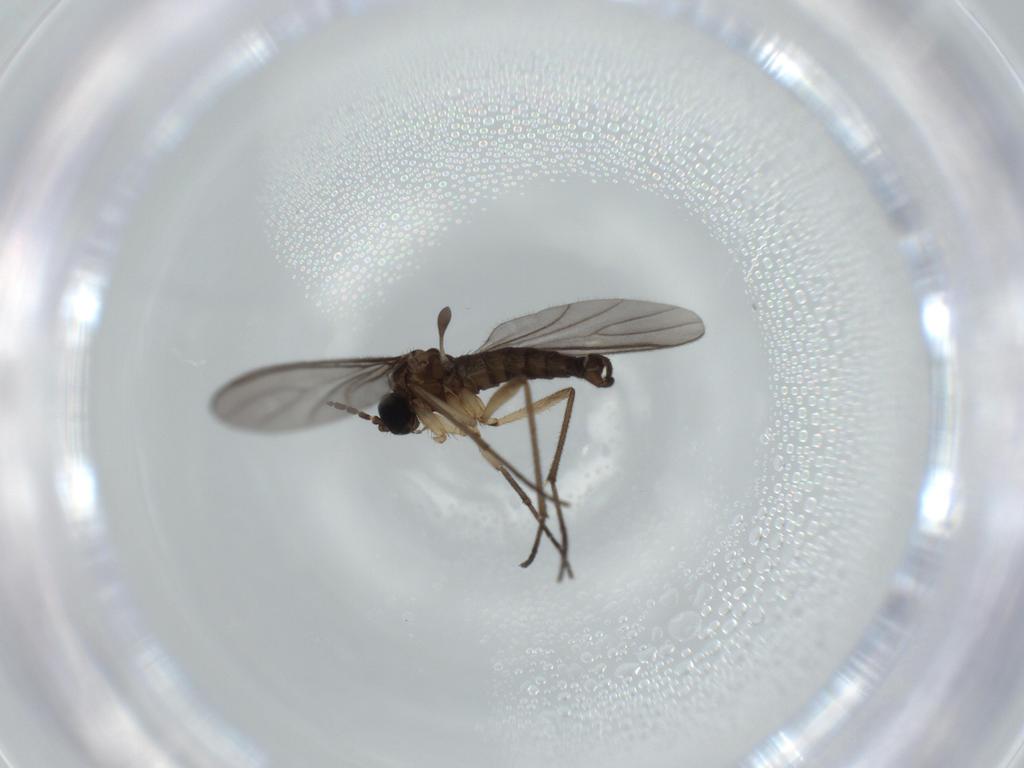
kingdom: Animalia
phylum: Arthropoda
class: Insecta
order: Diptera
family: Sciaridae
